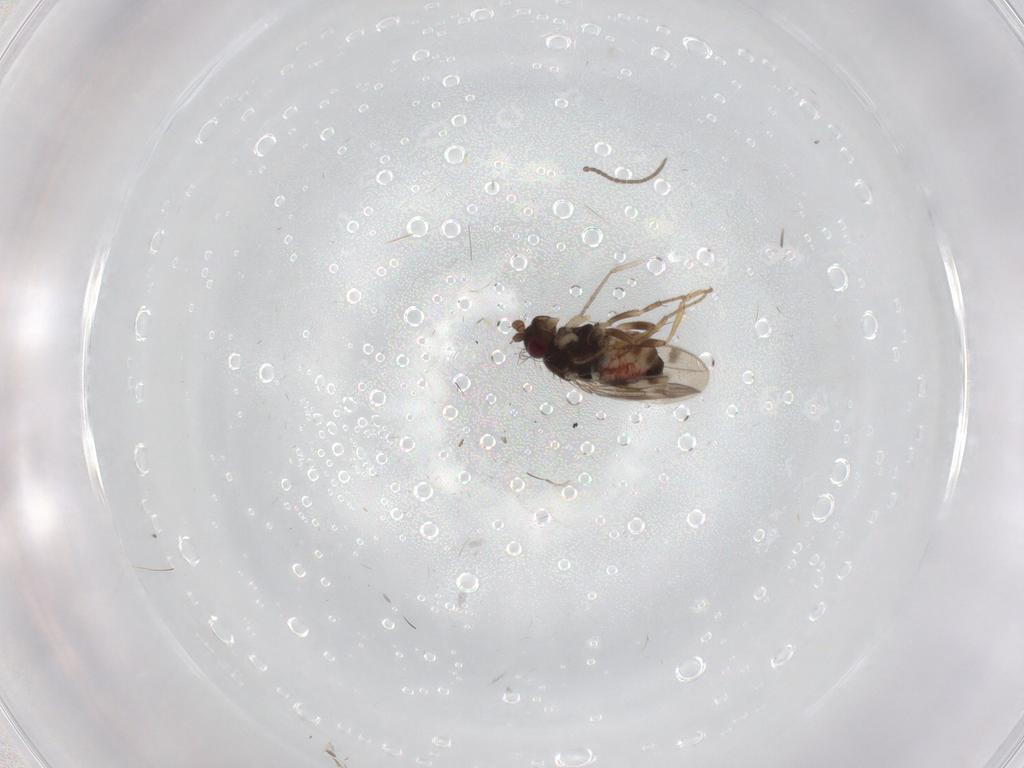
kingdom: Animalia
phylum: Arthropoda
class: Insecta
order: Diptera
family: Sphaeroceridae
